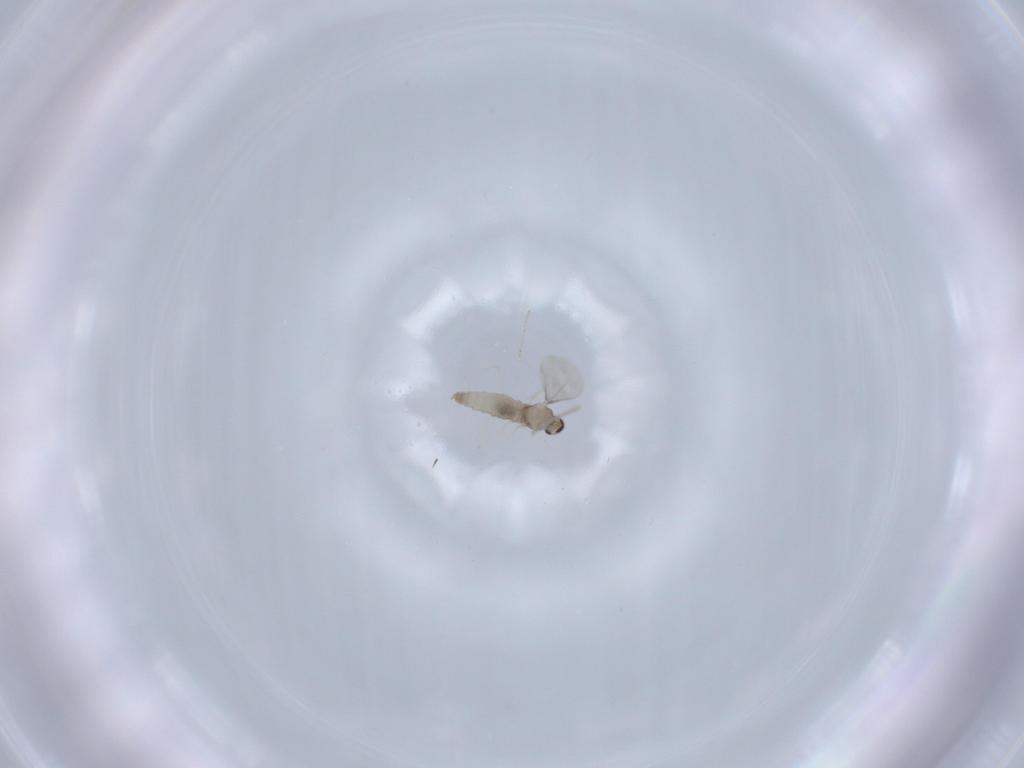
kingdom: Animalia
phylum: Arthropoda
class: Insecta
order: Diptera
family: Cecidomyiidae
